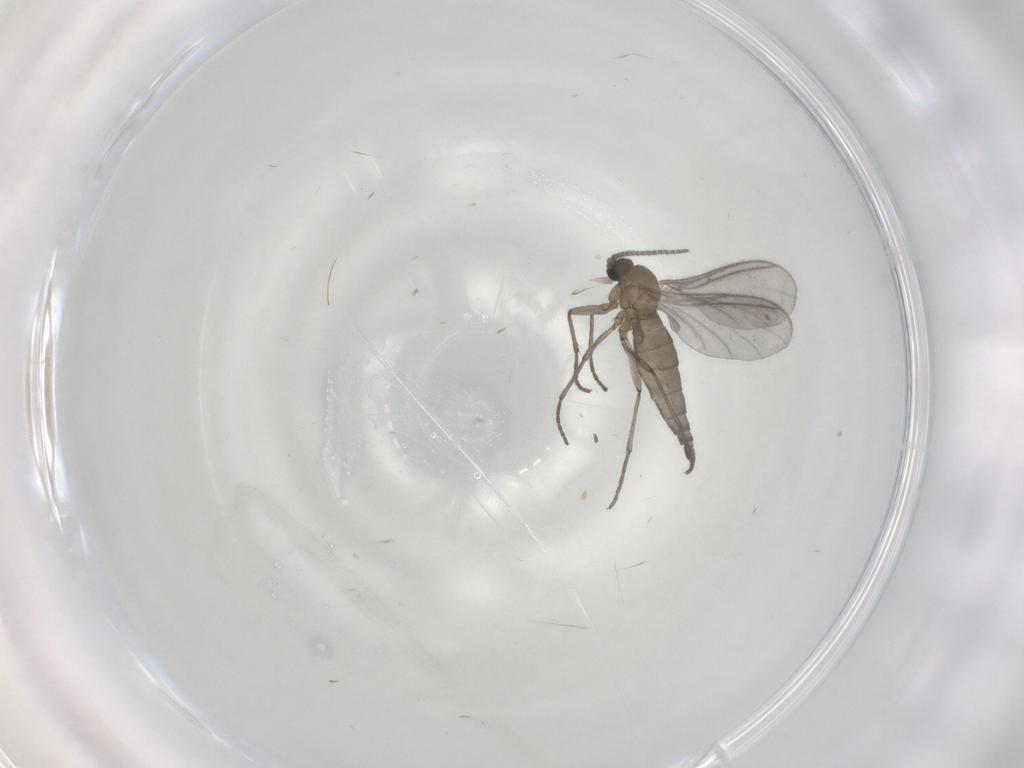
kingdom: Animalia
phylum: Arthropoda
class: Insecta
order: Diptera
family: Sciaridae
